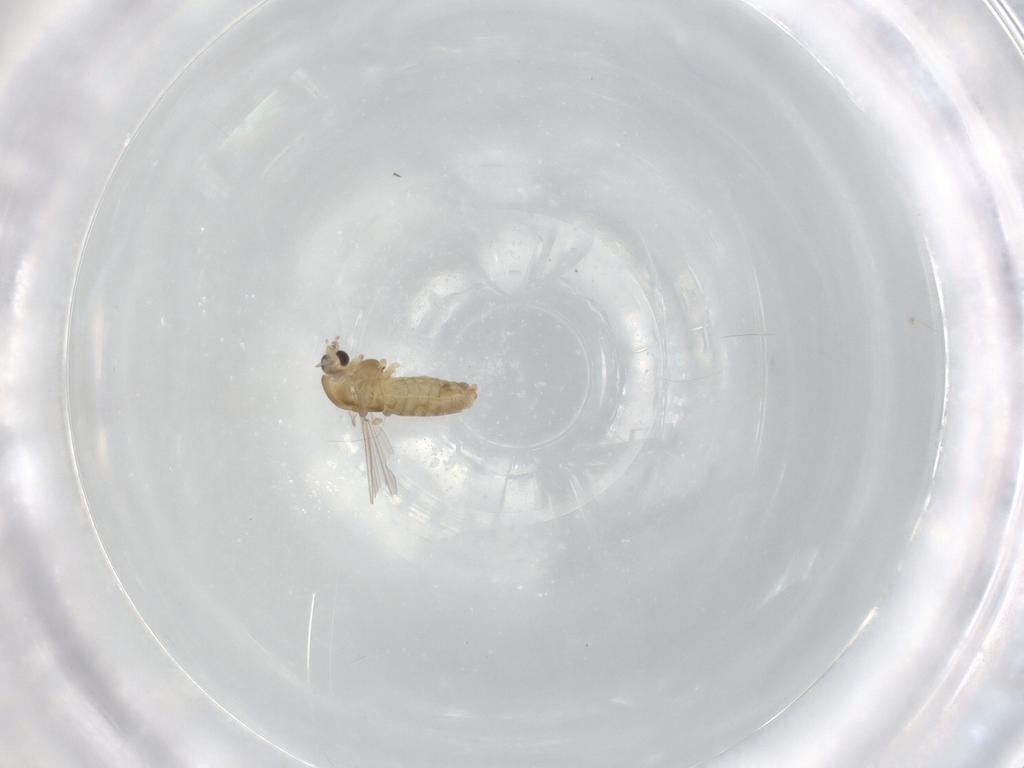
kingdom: Animalia
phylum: Arthropoda
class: Insecta
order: Diptera
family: Chironomidae
